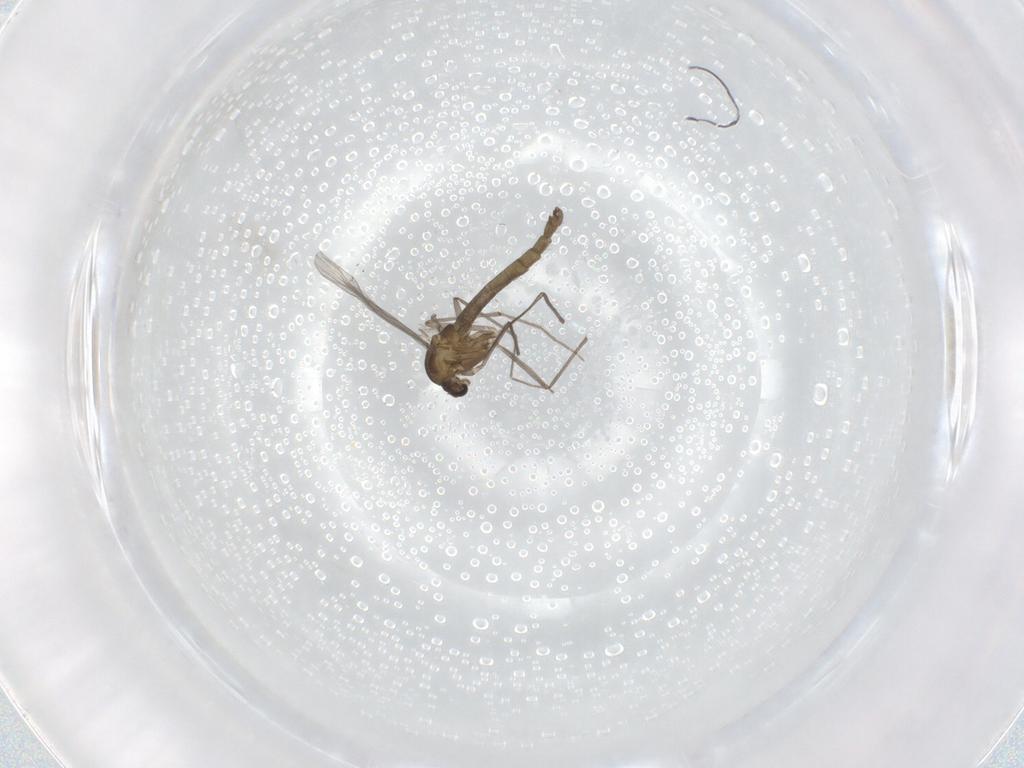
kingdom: Animalia
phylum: Arthropoda
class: Insecta
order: Diptera
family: Chironomidae
